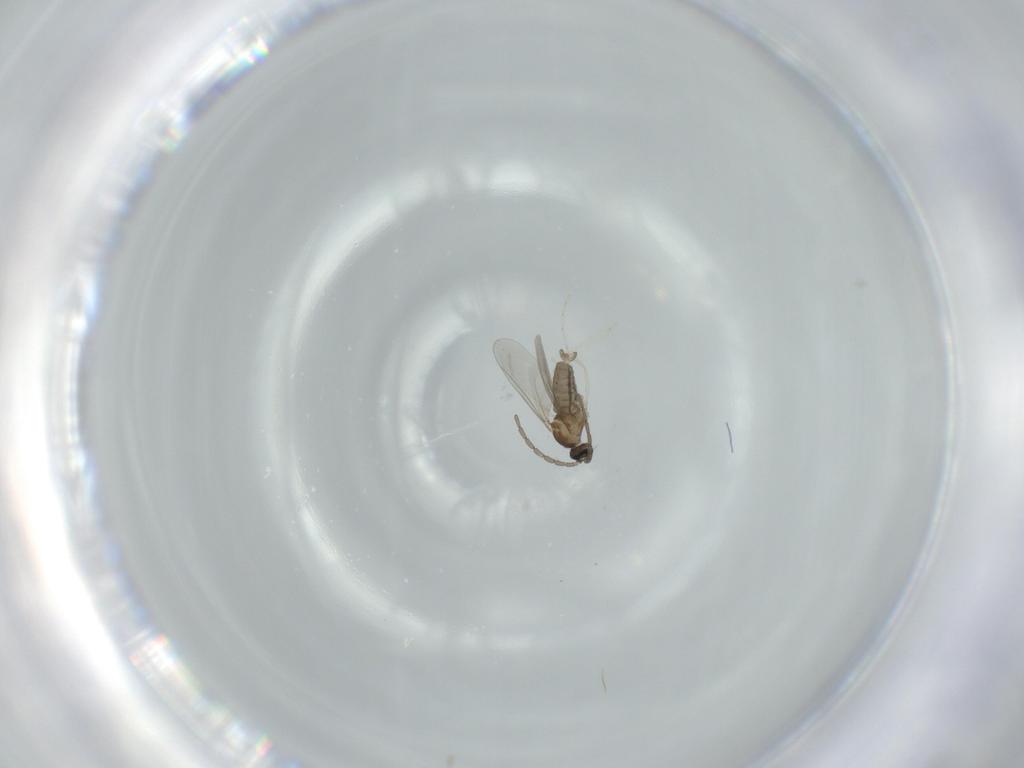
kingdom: Animalia
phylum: Arthropoda
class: Insecta
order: Diptera
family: Cecidomyiidae
